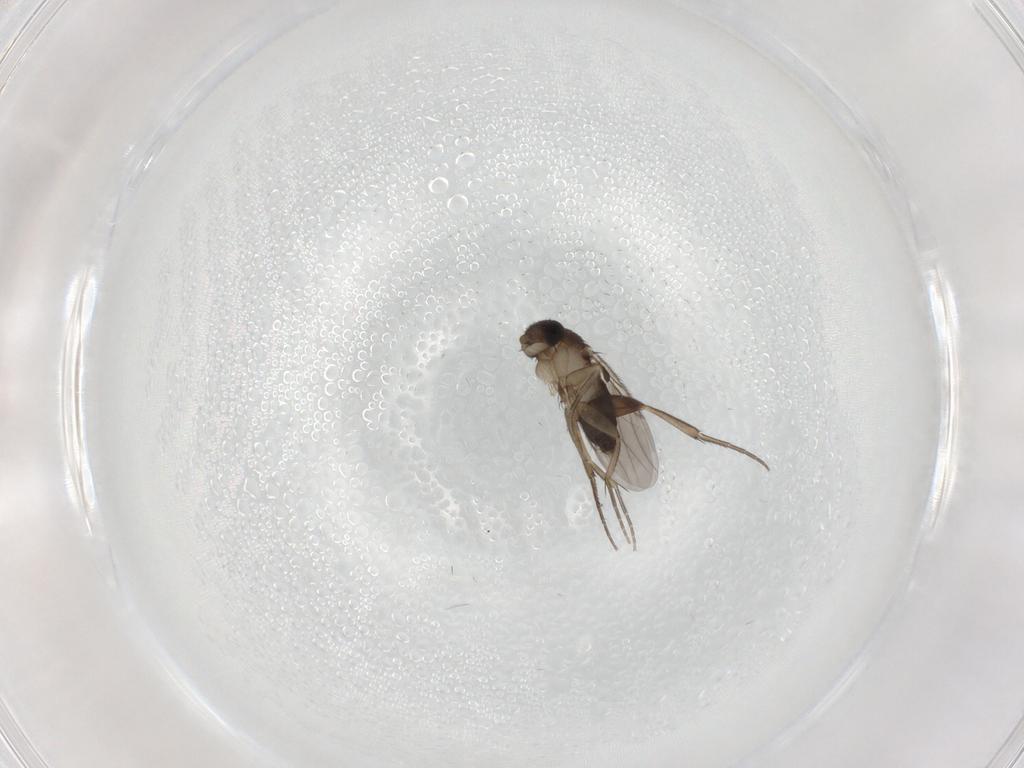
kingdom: Animalia
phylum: Arthropoda
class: Insecta
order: Diptera
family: Phoridae
